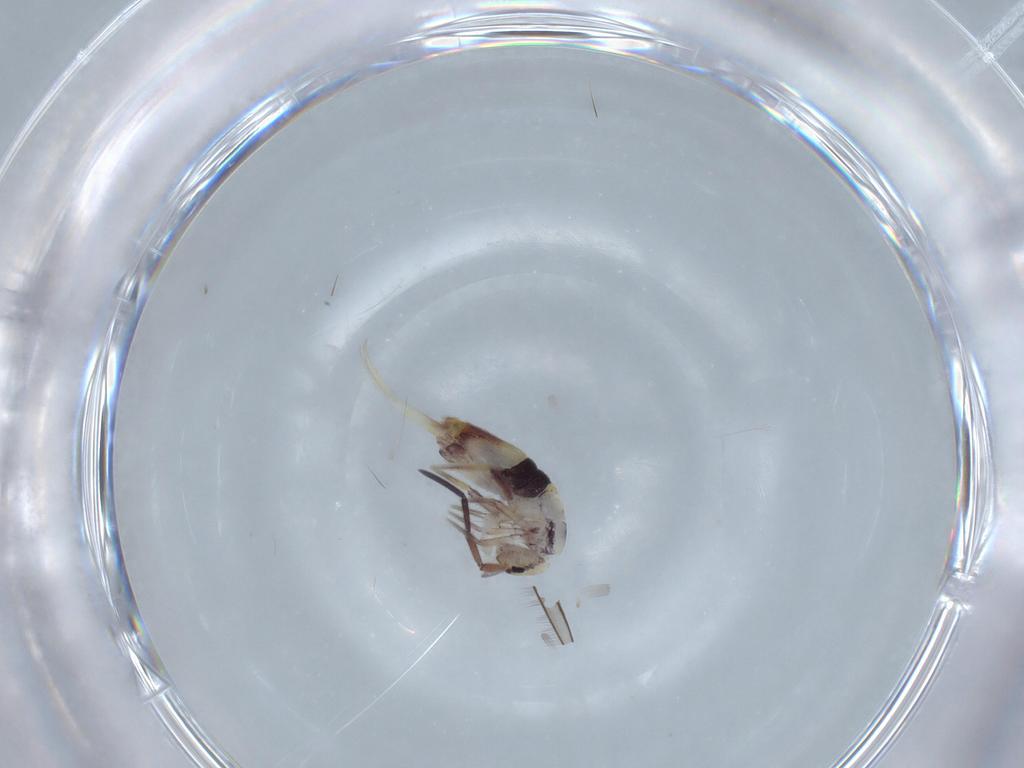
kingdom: Animalia
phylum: Arthropoda
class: Collembola
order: Entomobryomorpha
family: Entomobryidae
